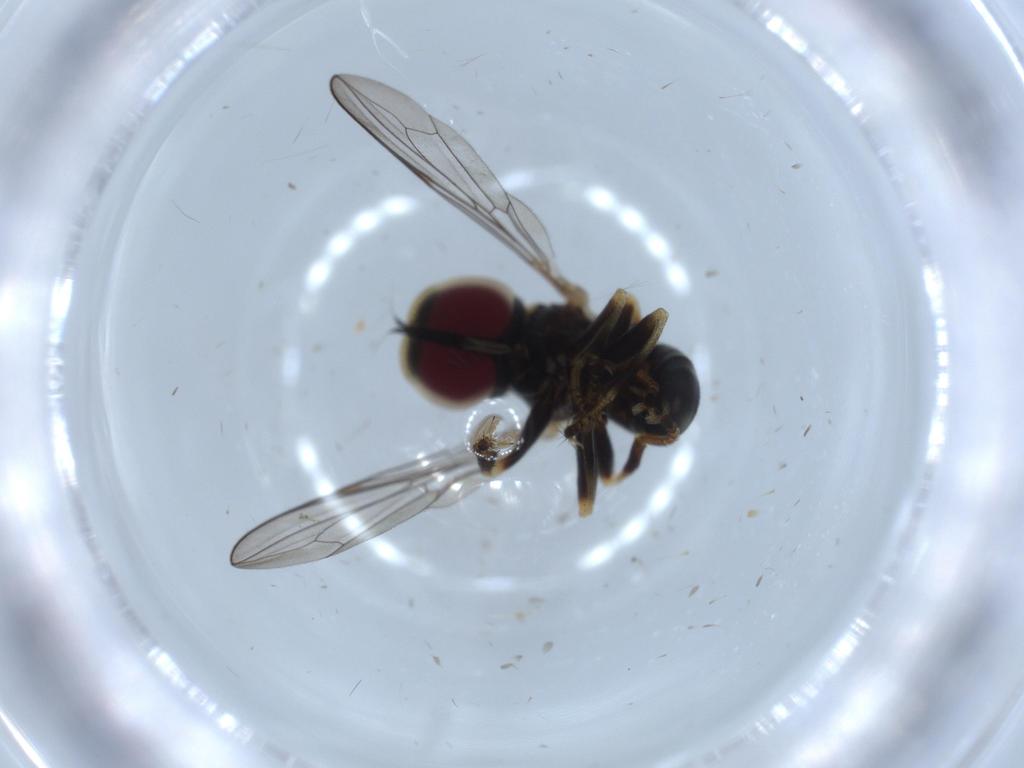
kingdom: Animalia
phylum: Arthropoda
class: Insecta
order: Diptera
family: Pipunculidae
